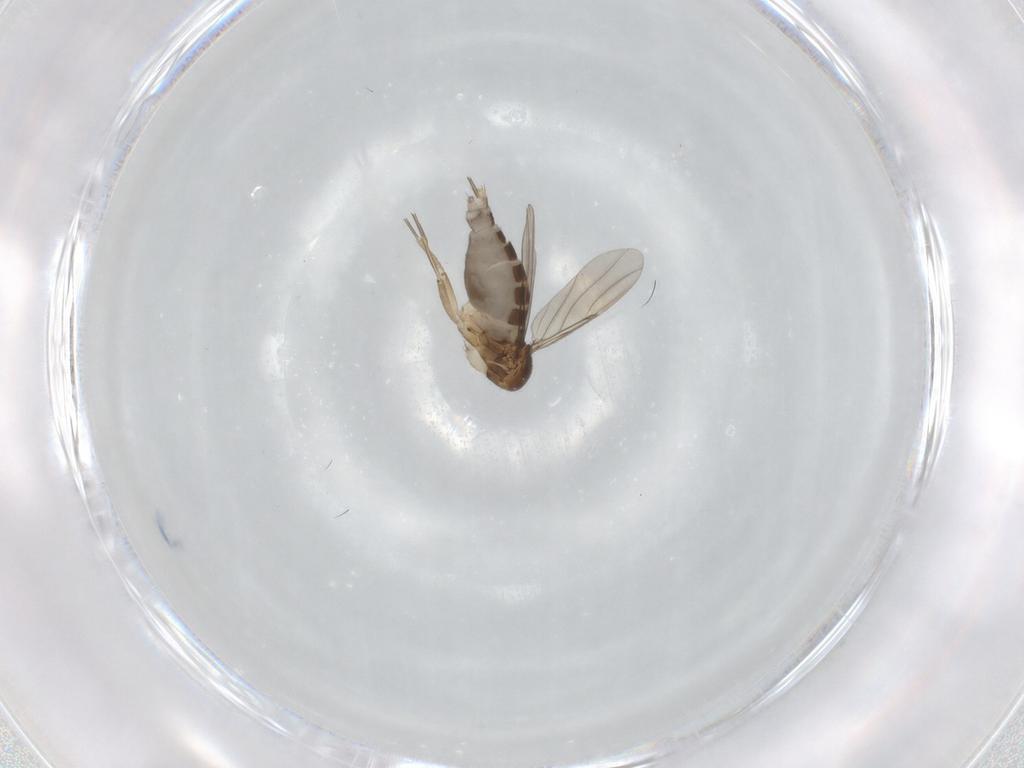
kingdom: Animalia
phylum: Arthropoda
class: Insecta
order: Diptera
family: Phoridae
